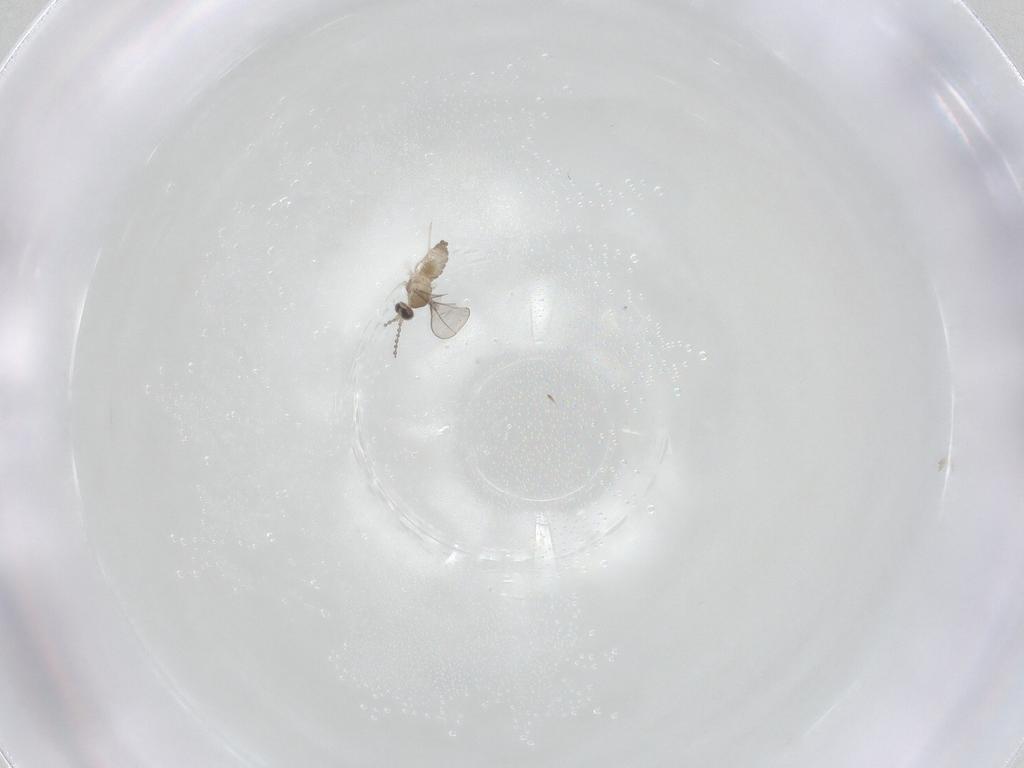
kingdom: Animalia
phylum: Arthropoda
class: Insecta
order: Diptera
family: Cecidomyiidae
